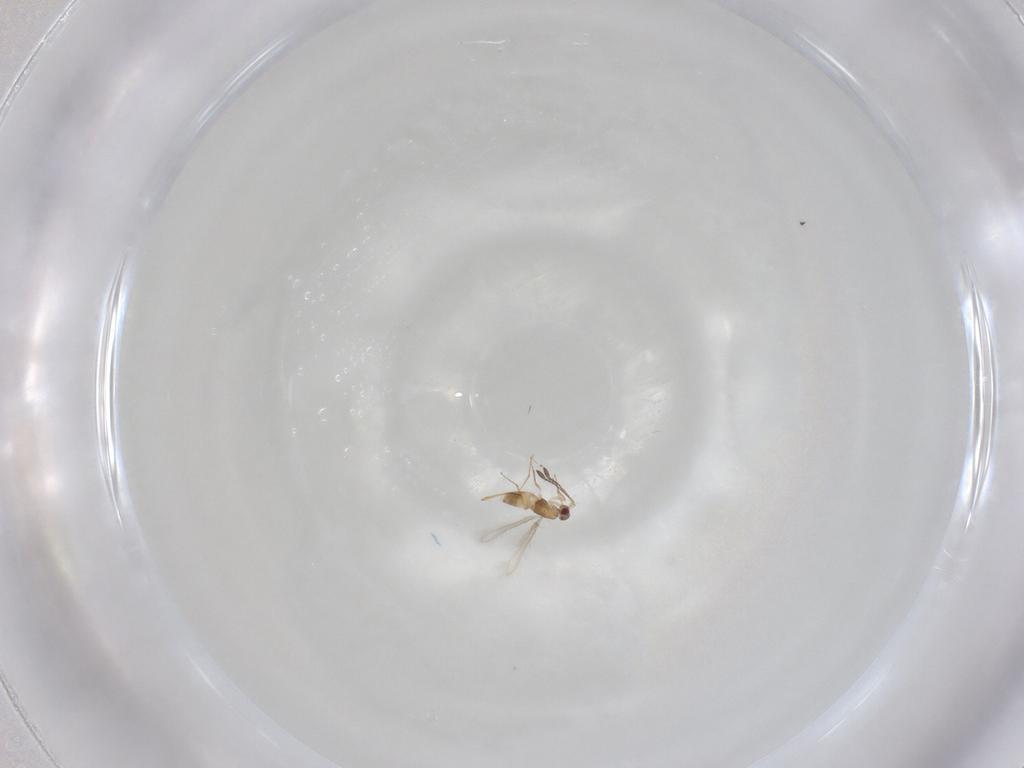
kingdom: Animalia
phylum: Arthropoda
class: Insecta
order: Hymenoptera
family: Mymaridae
